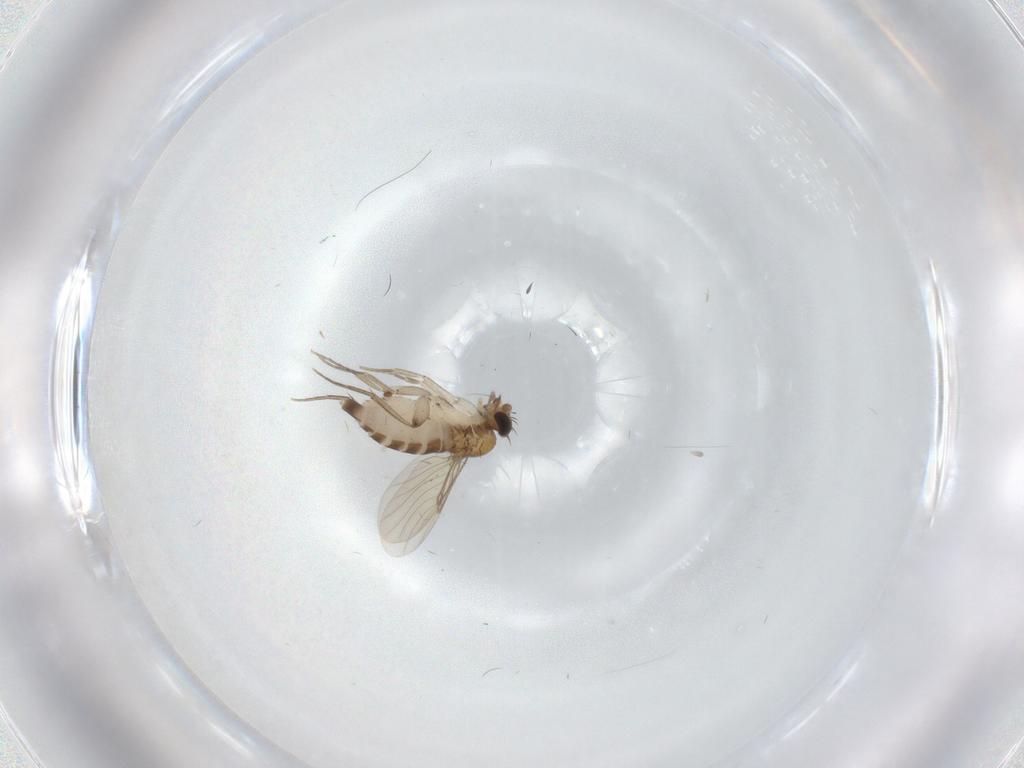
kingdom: Animalia
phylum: Arthropoda
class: Insecta
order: Diptera
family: Phoridae
